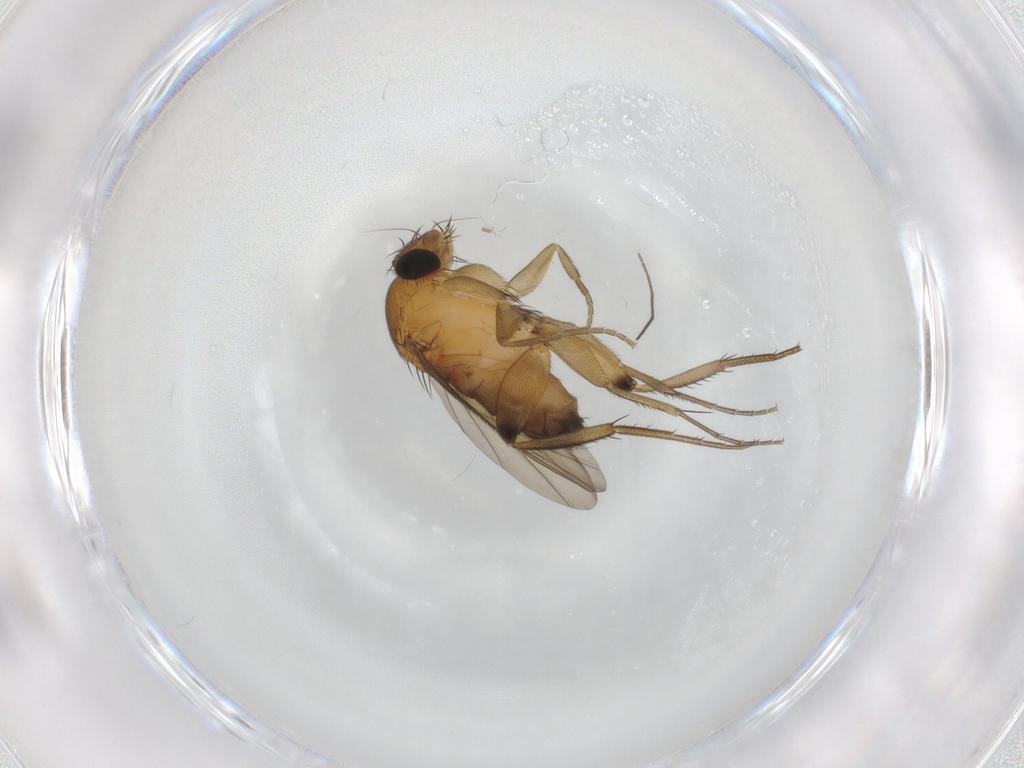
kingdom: Animalia
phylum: Arthropoda
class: Insecta
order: Diptera
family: Phoridae
